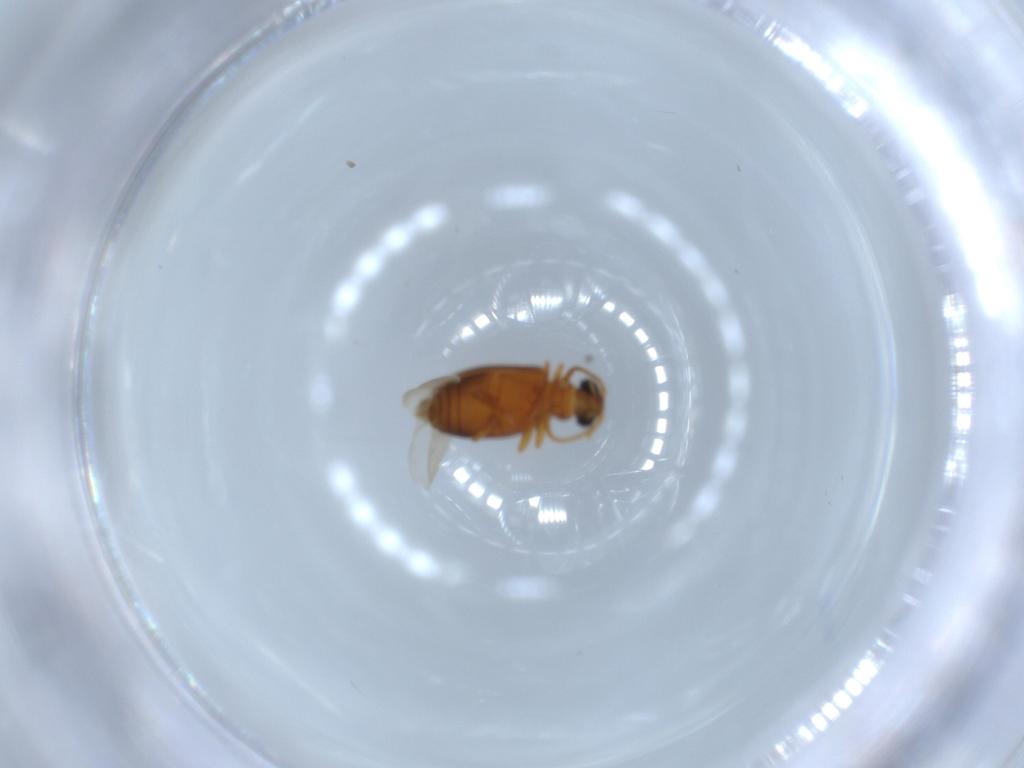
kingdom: Animalia
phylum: Arthropoda
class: Insecta
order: Coleoptera
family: Aderidae
